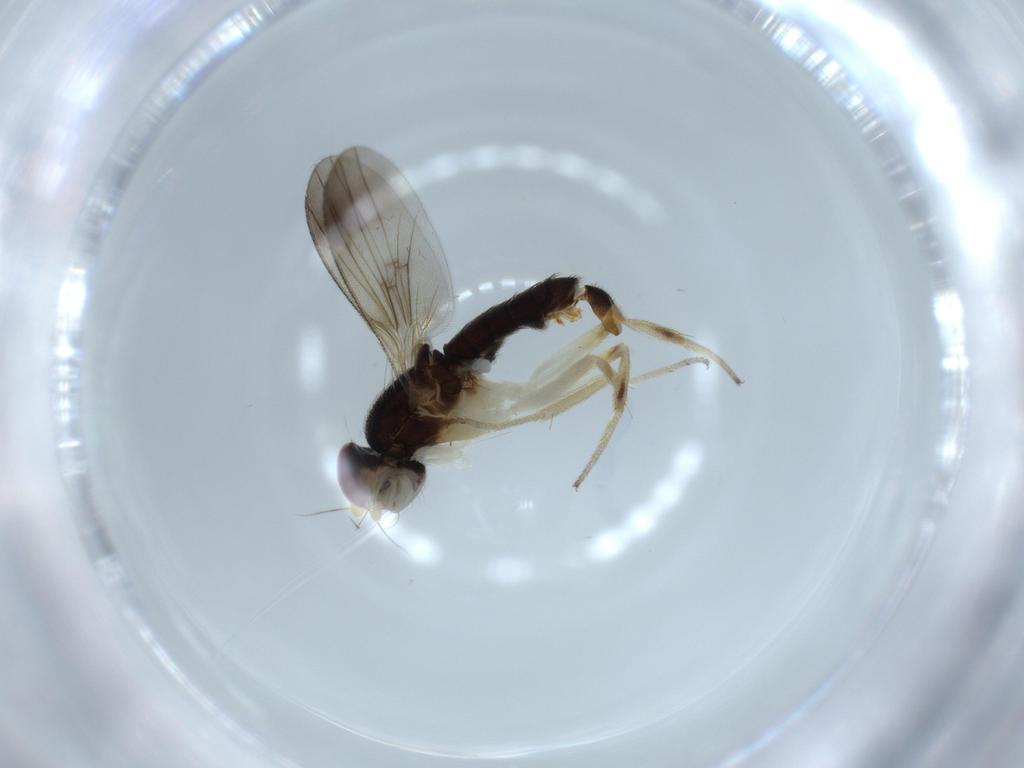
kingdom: Animalia
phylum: Arthropoda
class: Insecta
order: Diptera
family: Clusiidae
